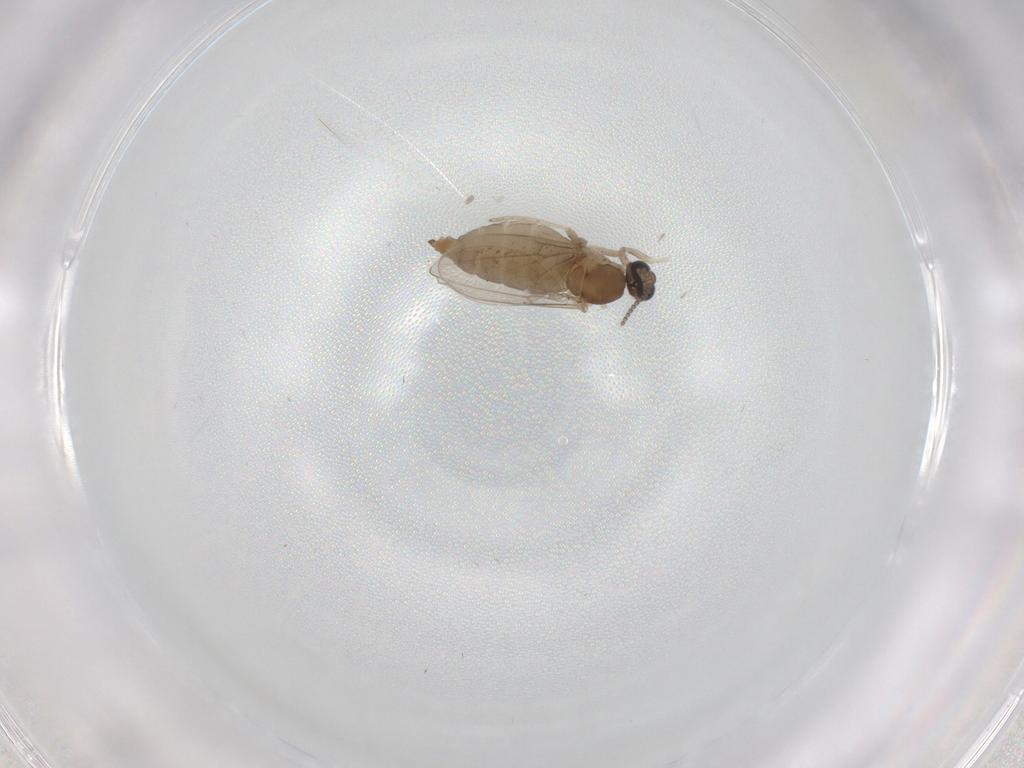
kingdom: Animalia
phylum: Arthropoda
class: Insecta
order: Diptera
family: Cecidomyiidae
